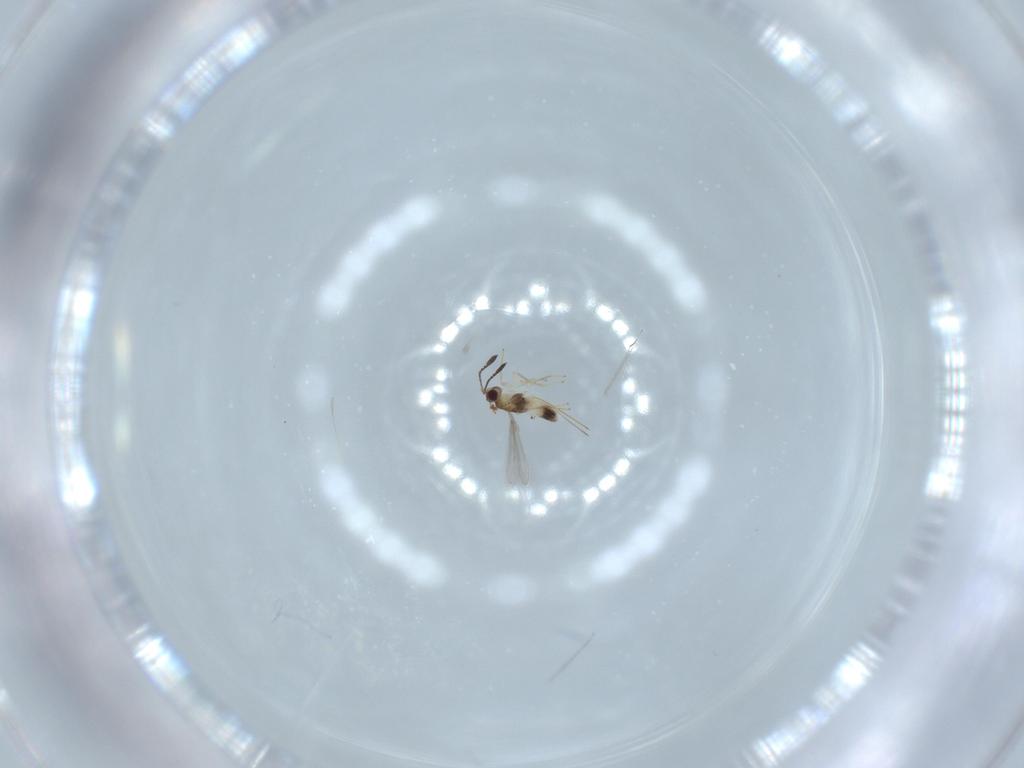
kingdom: Animalia
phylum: Arthropoda
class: Insecta
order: Hymenoptera
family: Mymaridae
